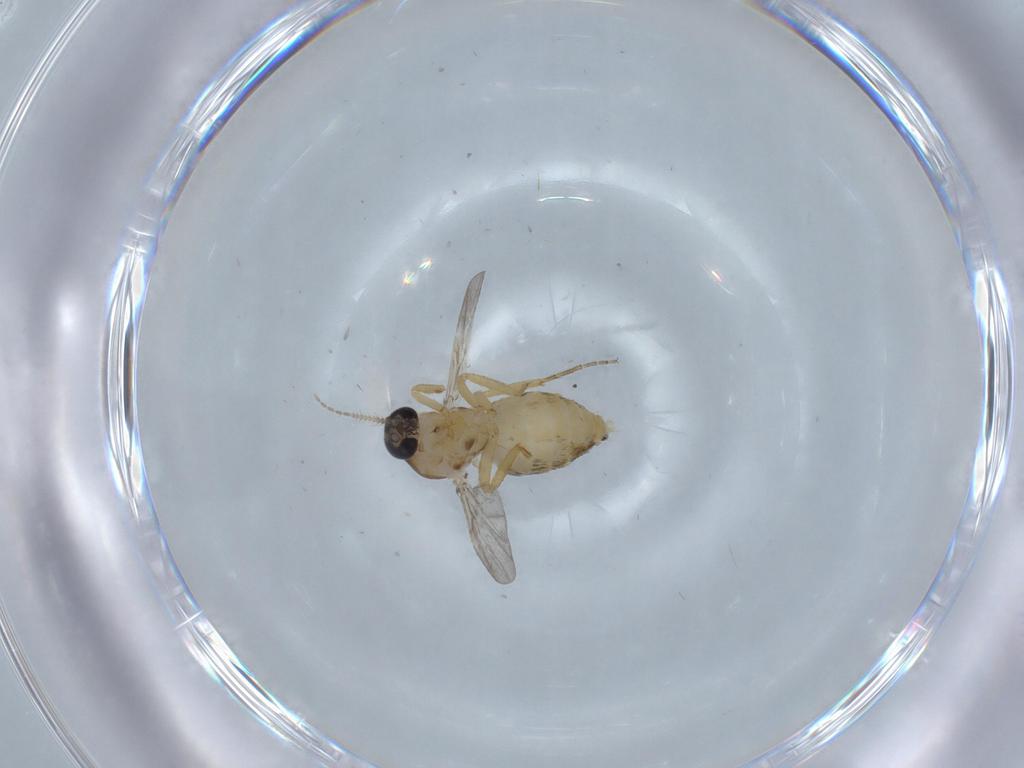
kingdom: Animalia
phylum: Arthropoda
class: Insecta
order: Diptera
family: Ceratopogonidae
